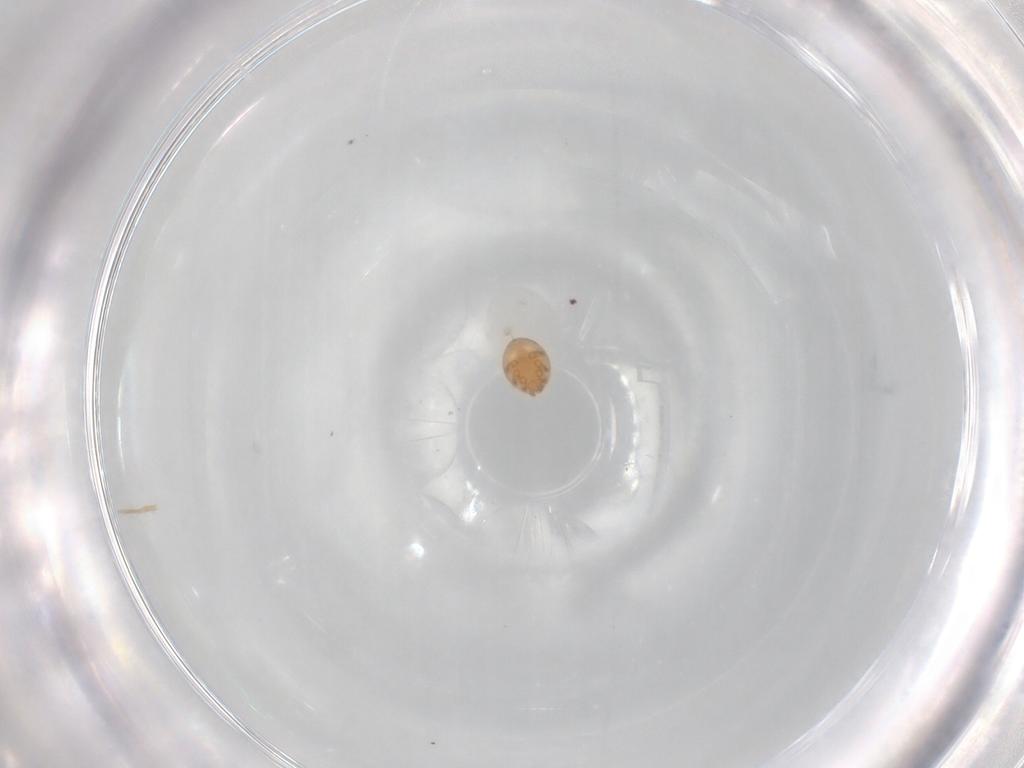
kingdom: Animalia
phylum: Arthropoda
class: Arachnida
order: Mesostigmata
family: Trematuridae
